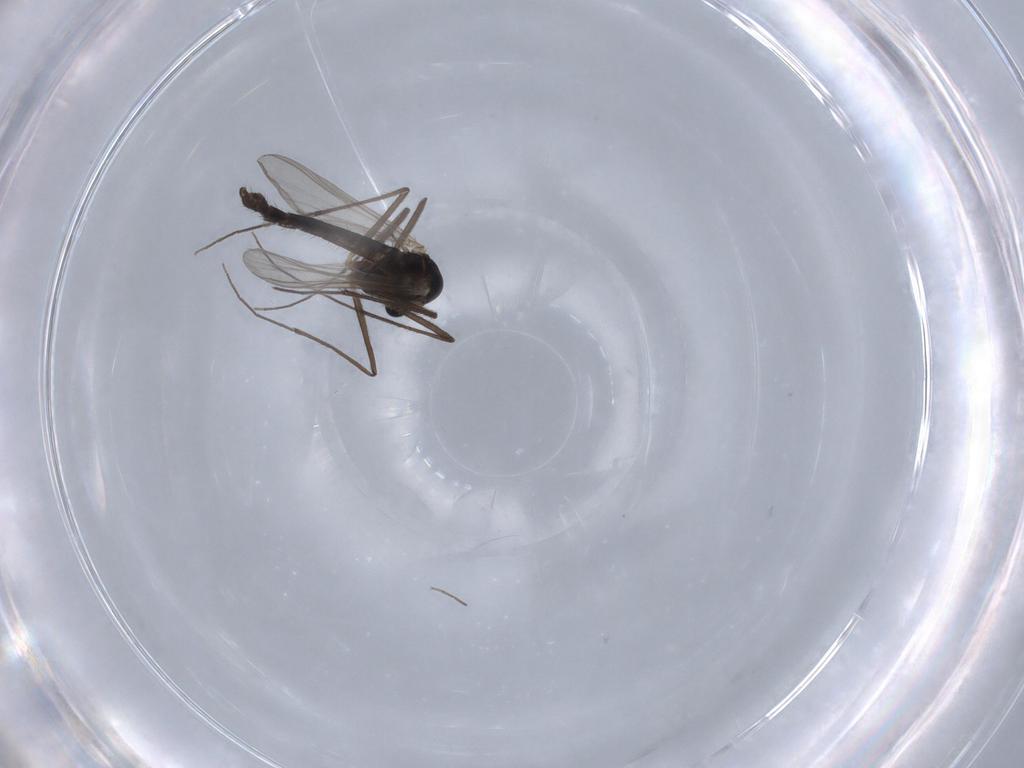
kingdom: Animalia
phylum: Arthropoda
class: Insecta
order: Diptera
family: Chironomidae
